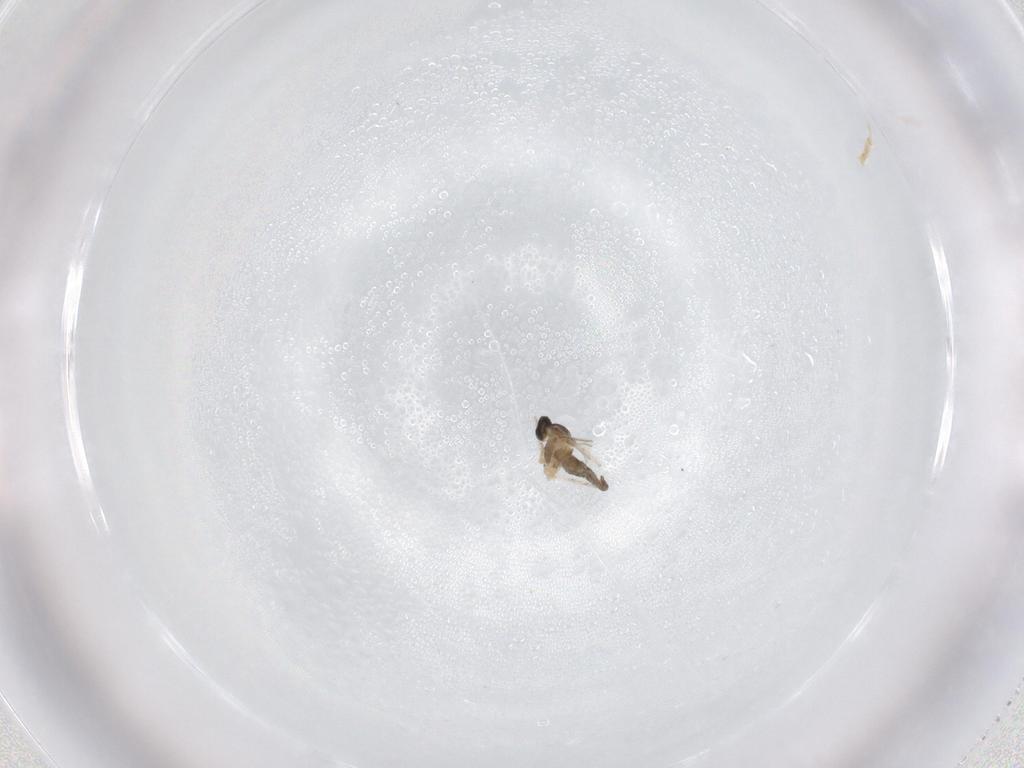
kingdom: Animalia
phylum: Arthropoda
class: Insecta
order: Diptera
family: Cecidomyiidae
